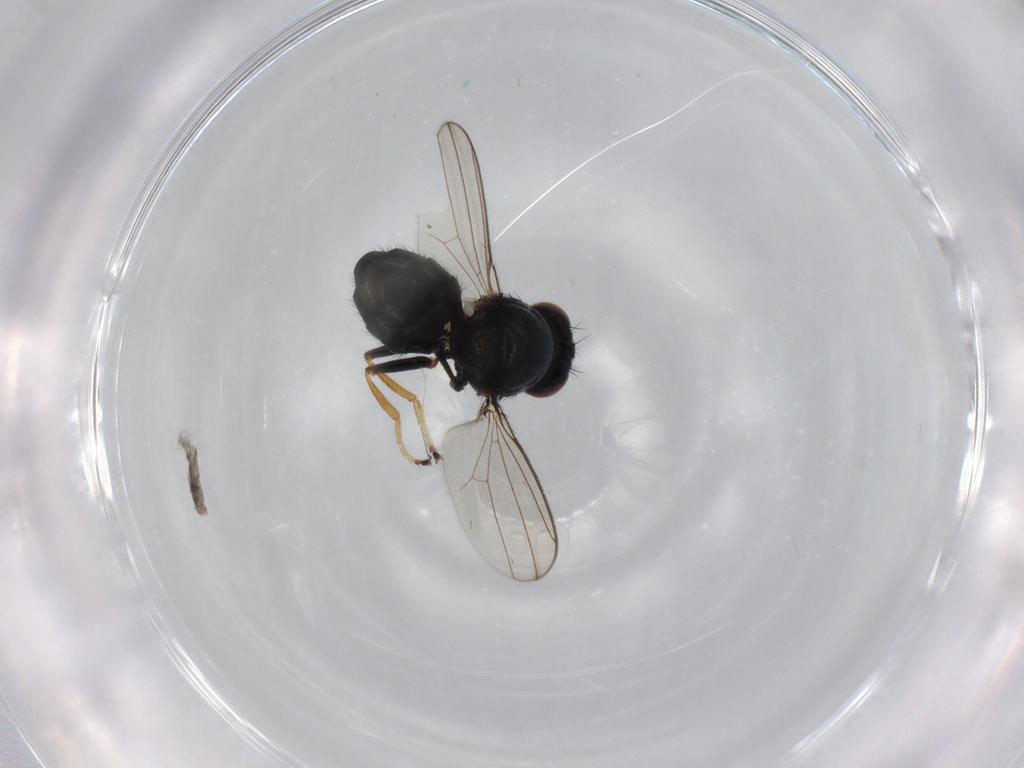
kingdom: Animalia
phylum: Arthropoda
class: Insecta
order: Diptera
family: Ephydridae
